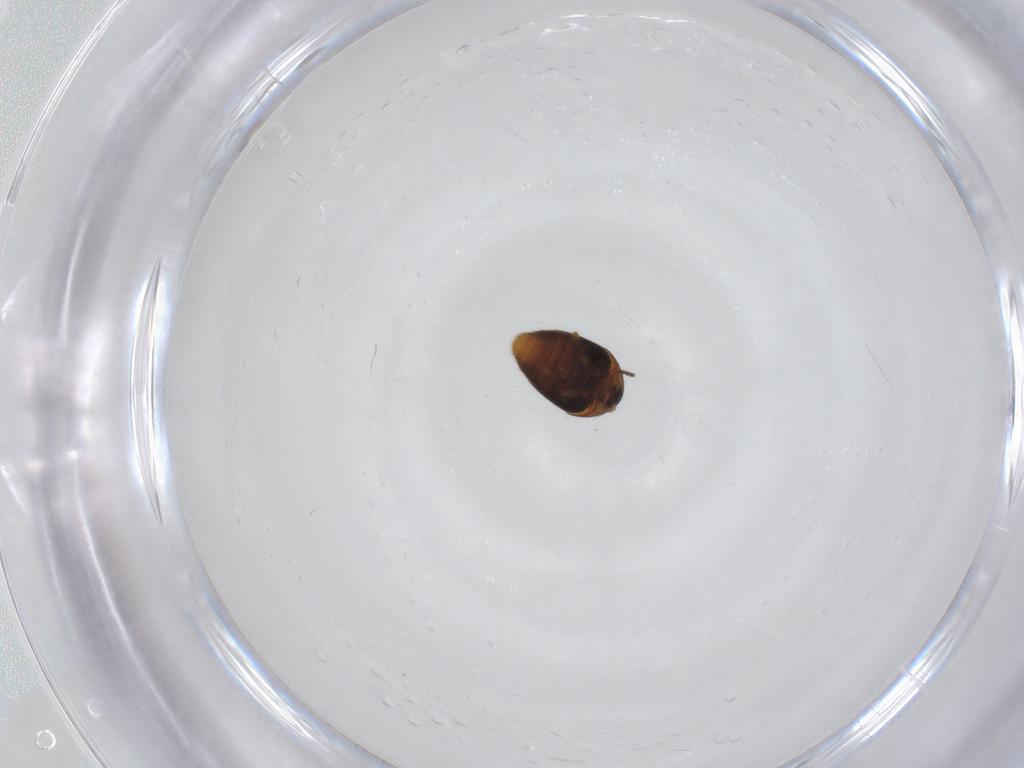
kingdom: Animalia
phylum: Arthropoda
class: Insecta
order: Coleoptera
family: Corylophidae
